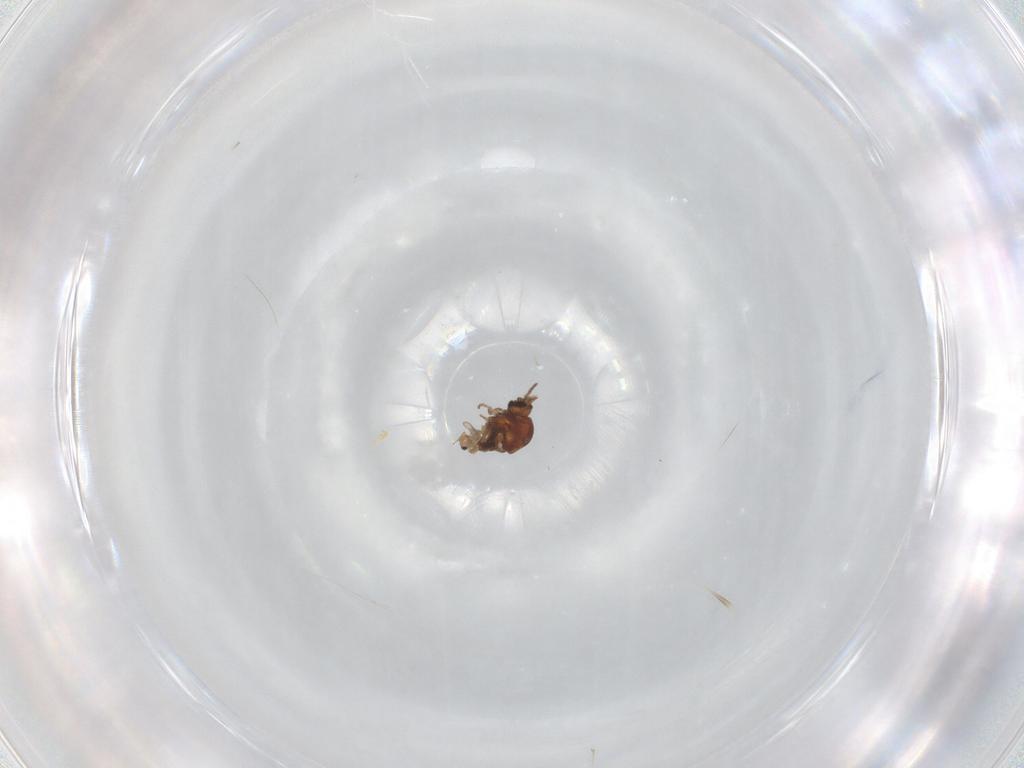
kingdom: Animalia
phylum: Arthropoda
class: Insecta
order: Diptera
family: Ceratopogonidae
